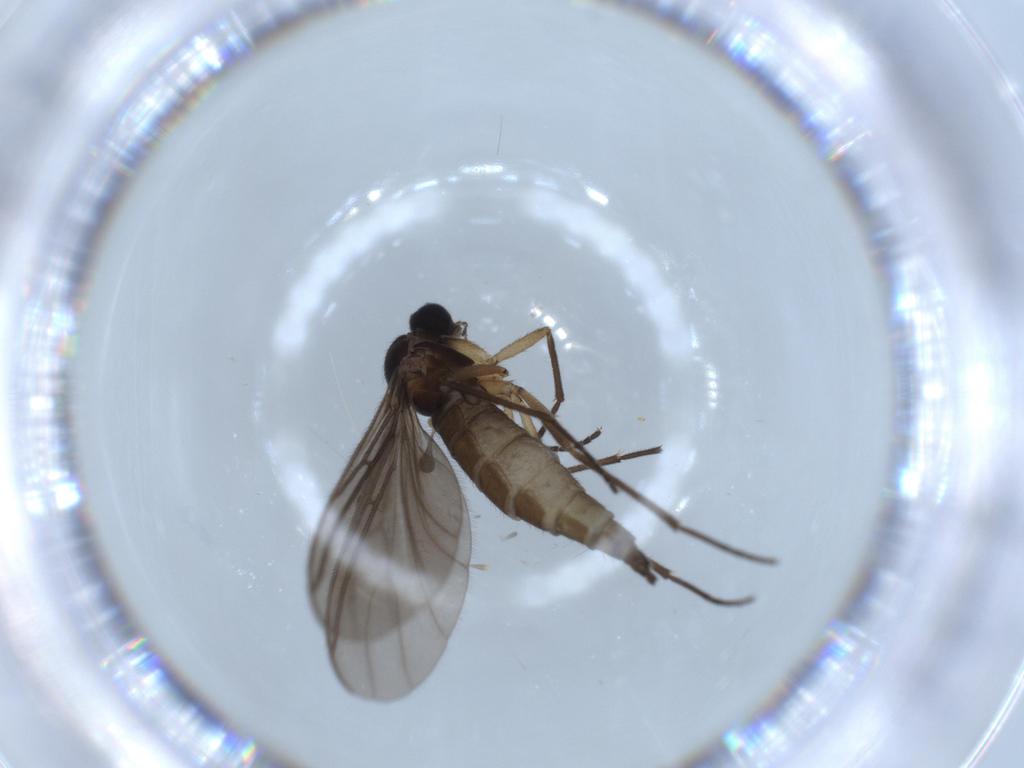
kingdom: Animalia
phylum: Arthropoda
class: Insecta
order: Diptera
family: Sciaridae
